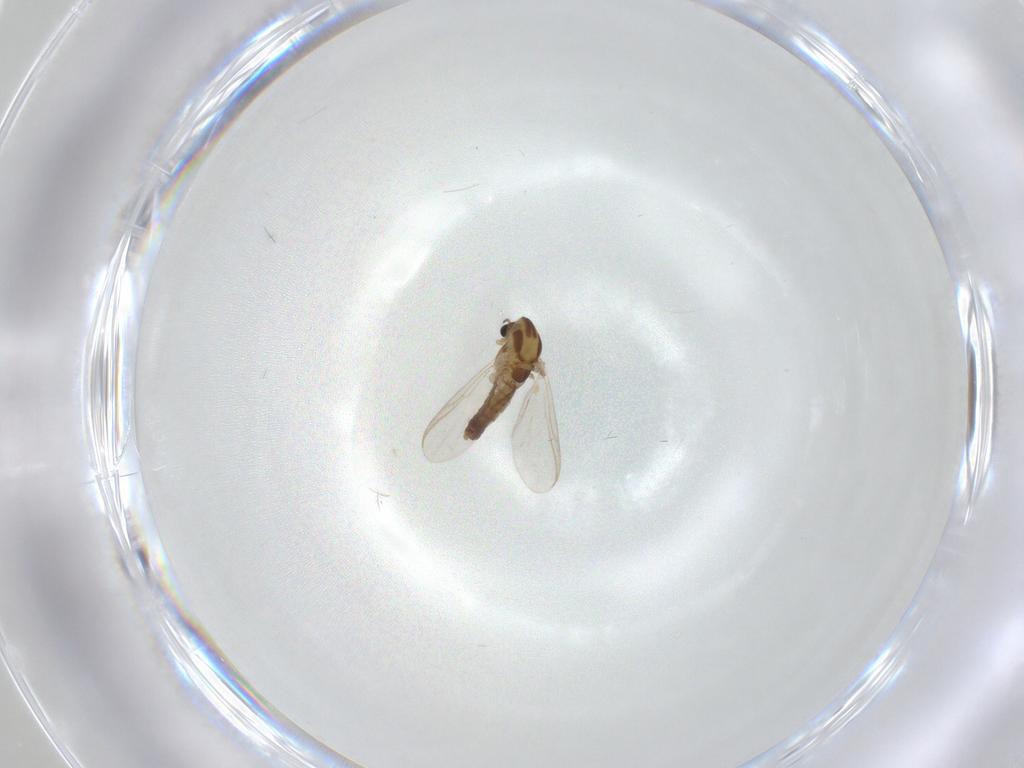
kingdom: Animalia
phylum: Arthropoda
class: Insecta
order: Diptera
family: Chironomidae
